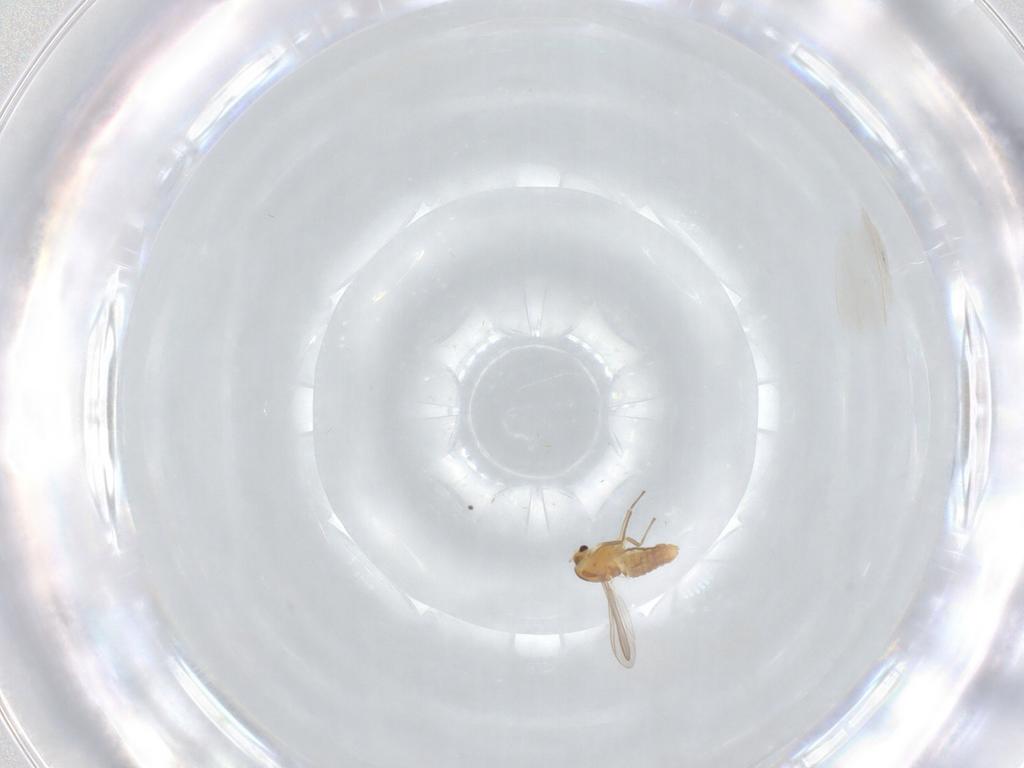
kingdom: Animalia
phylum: Arthropoda
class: Insecta
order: Diptera
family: Chironomidae
